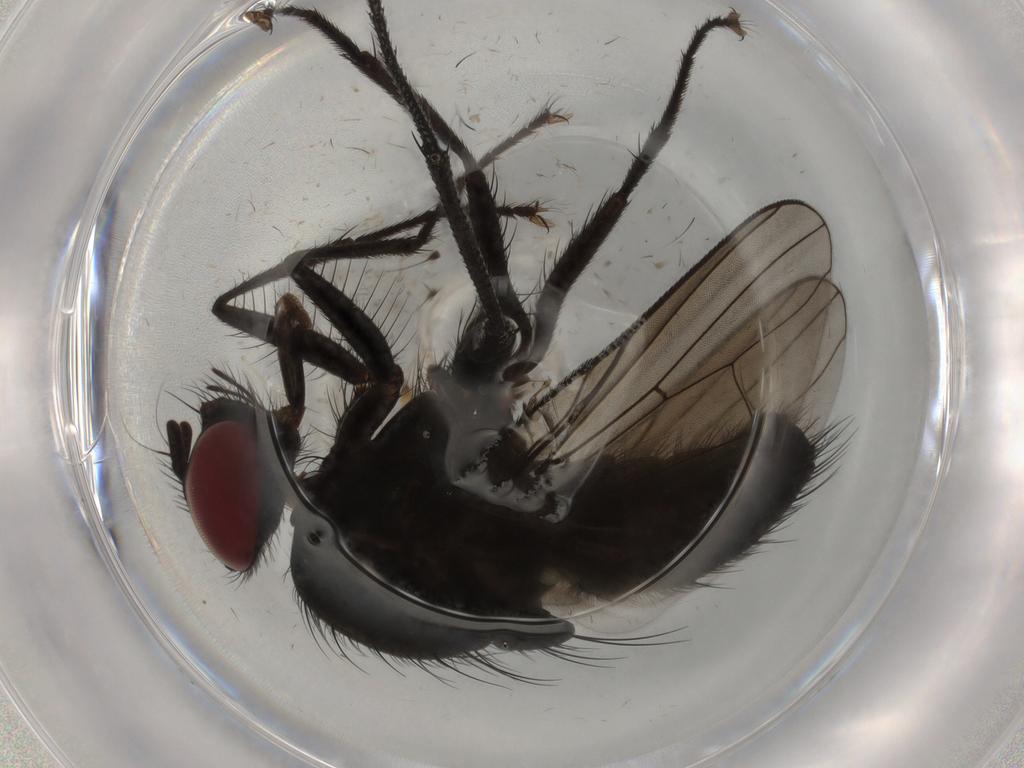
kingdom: Animalia
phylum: Arthropoda
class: Insecta
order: Diptera
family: Muscidae
